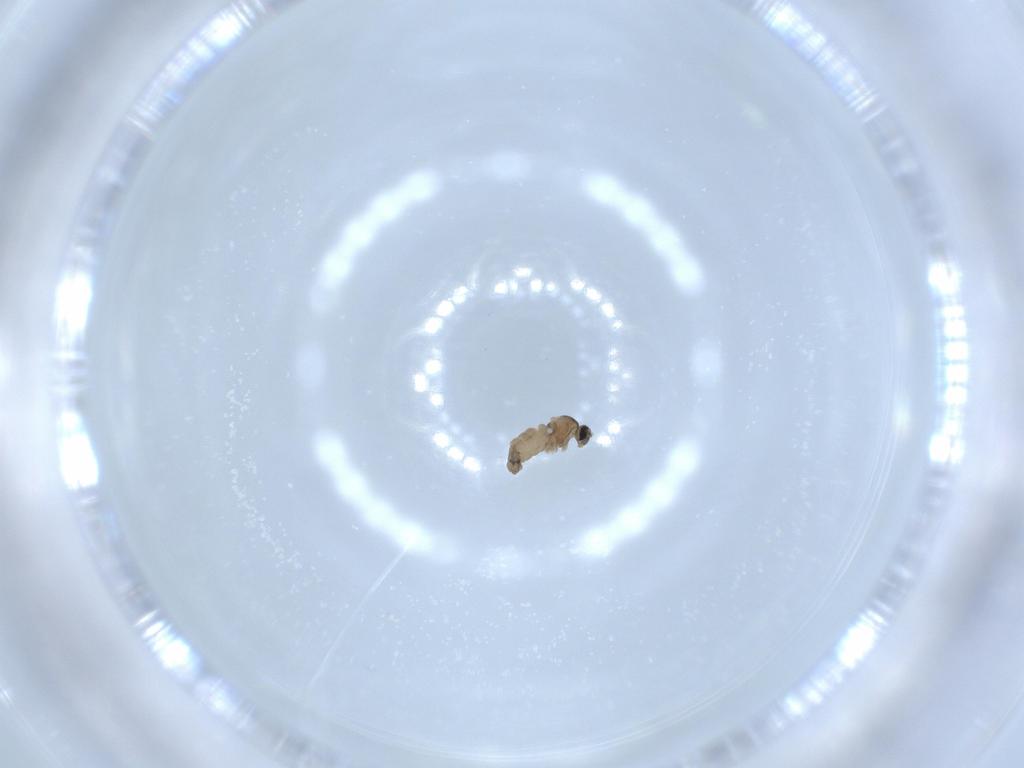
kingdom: Animalia
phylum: Arthropoda
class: Insecta
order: Diptera
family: Cecidomyiidae
